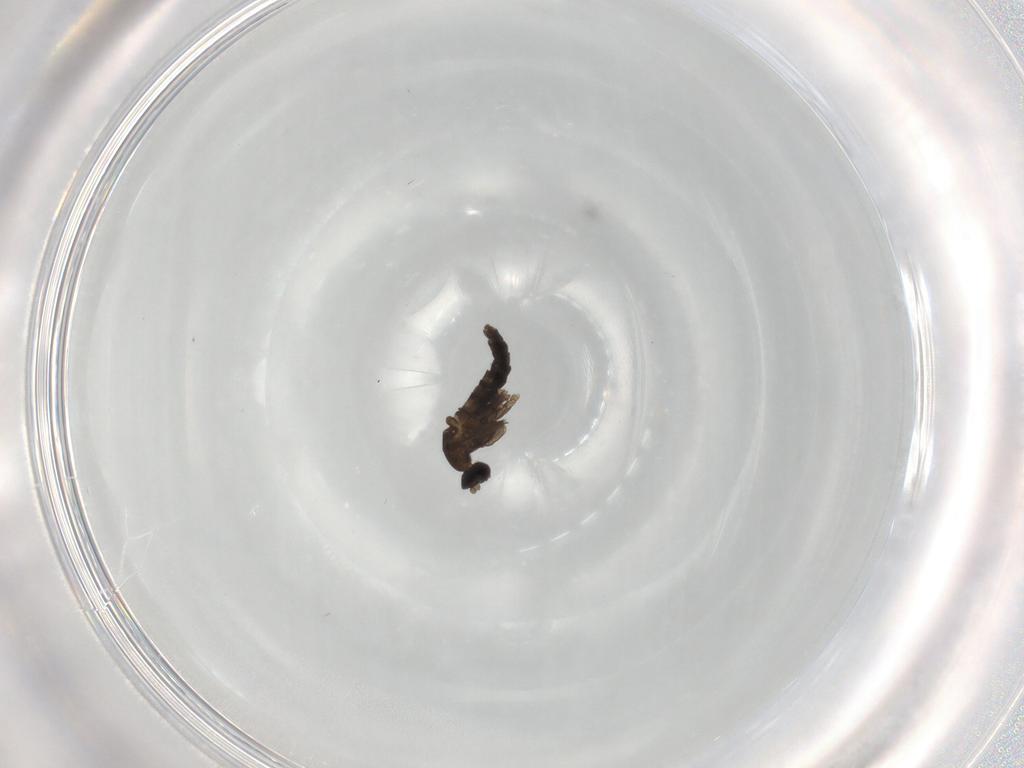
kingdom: Animalia
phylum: Arthropoda
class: Insecta
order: Diptera
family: Cecidomyiidae
